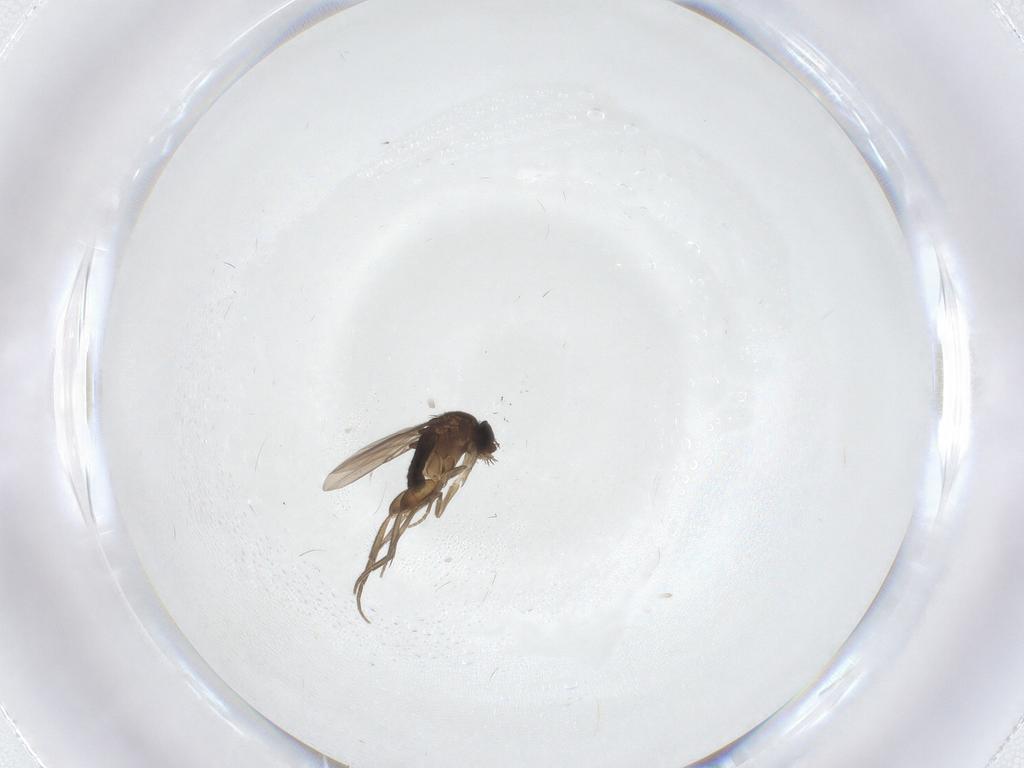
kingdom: Animalia
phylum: Arthropoda
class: Insecta
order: Diptera
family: Phoridae
